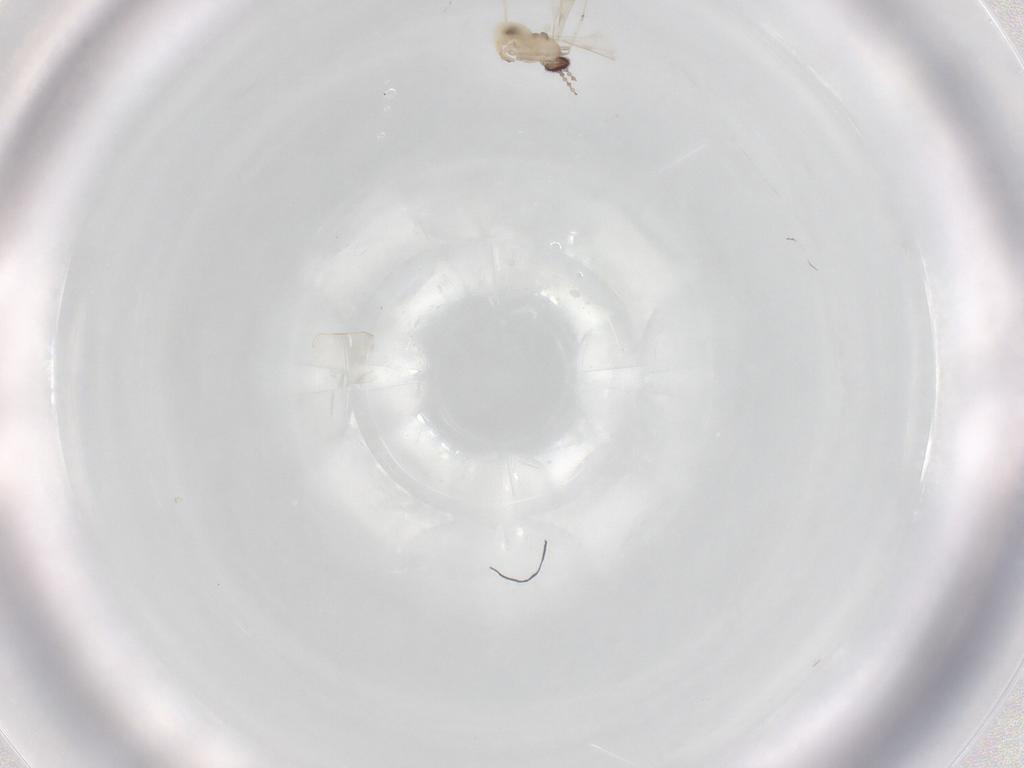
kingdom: Animalia
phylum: Arthropoda
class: Insecta
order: Diptera
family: Cecidomyiidae
